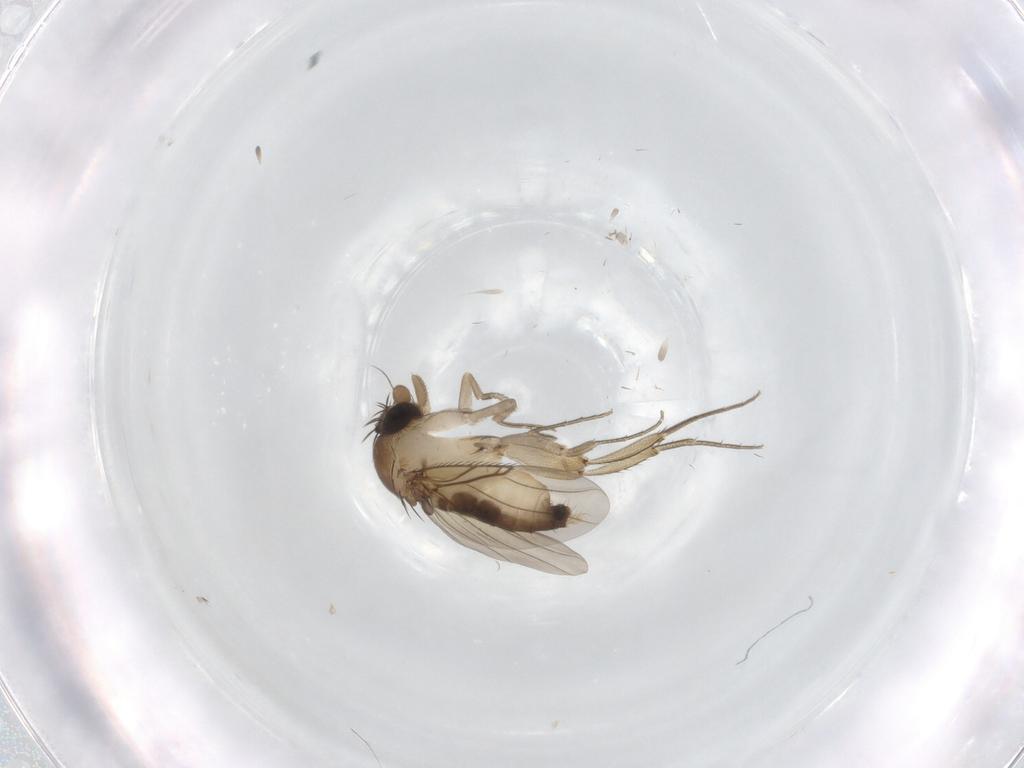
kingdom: Animalia
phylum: Arthropoda
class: Insecta
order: Diptera
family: Phoridae
